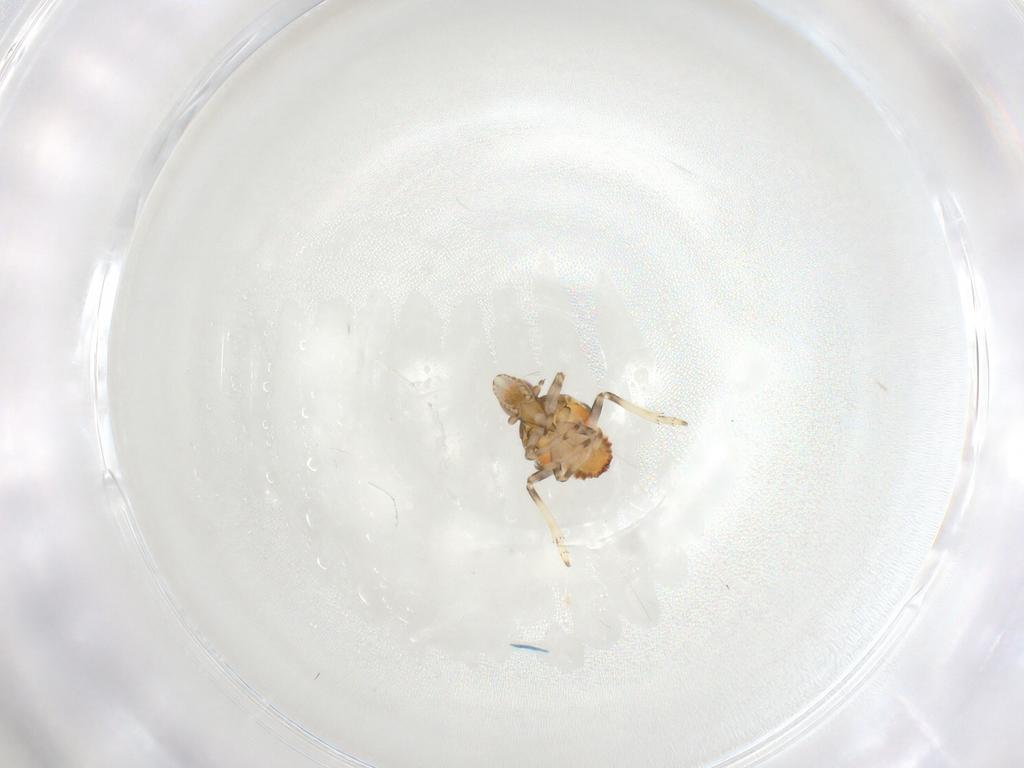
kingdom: Animalia
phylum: Arthropoda
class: Insecta
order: Hemiptera
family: Tropiduchidae
